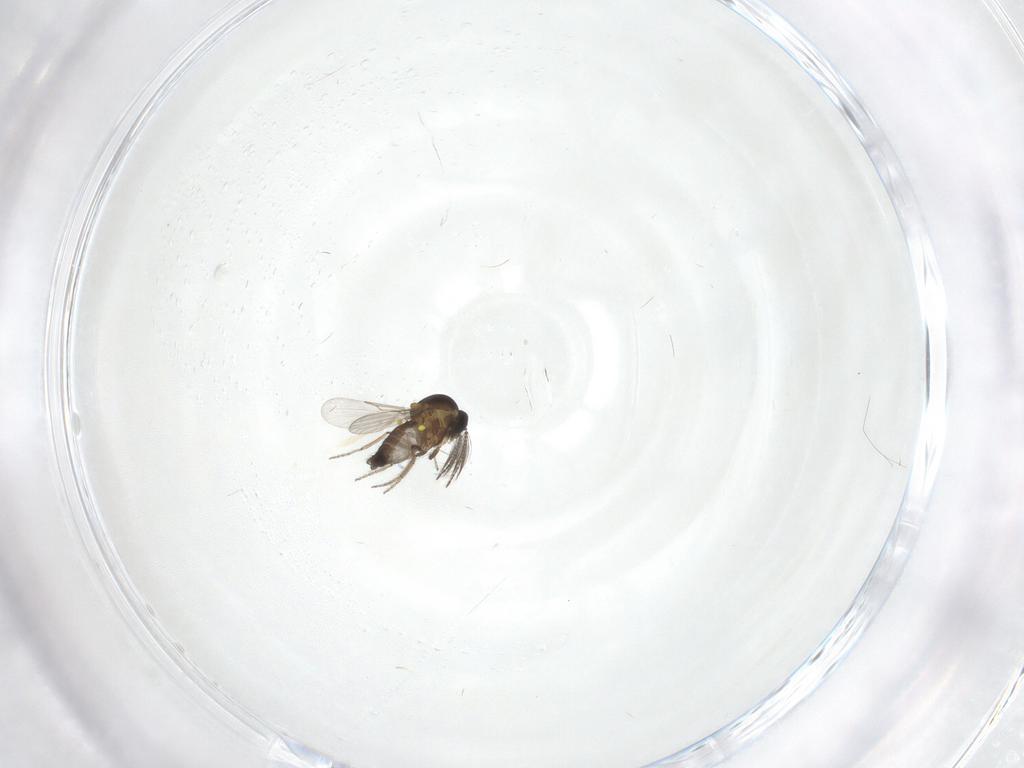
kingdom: Animalia
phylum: Arthropoda
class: Insecta
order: Diptera
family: Ceratopogonidae
